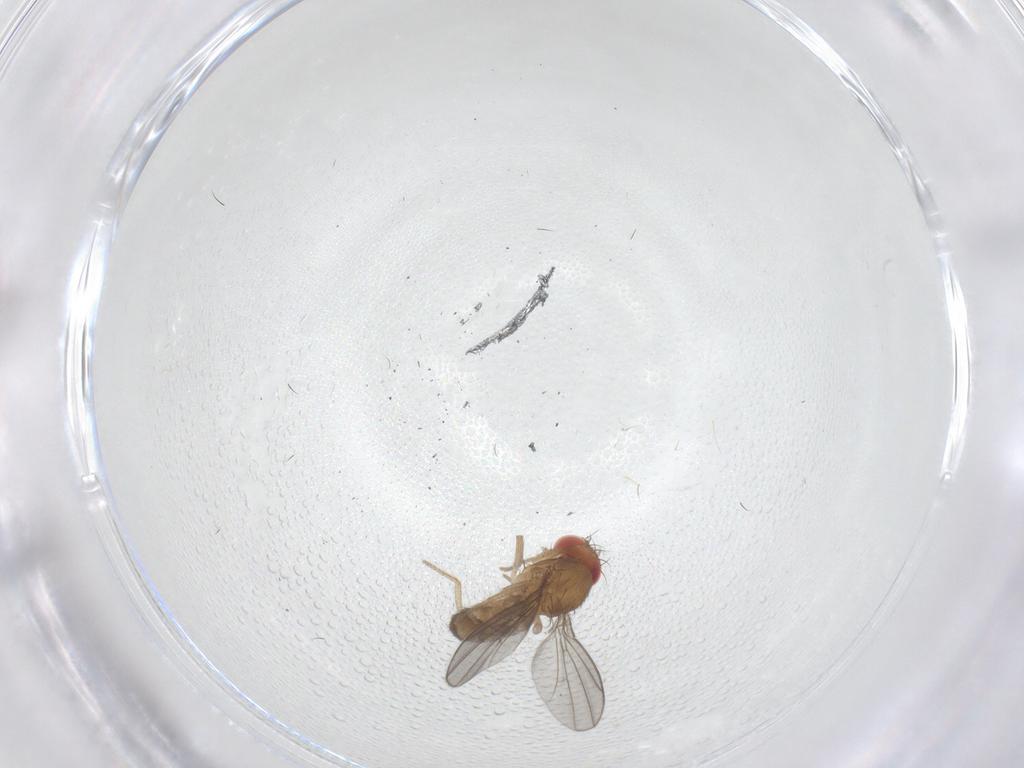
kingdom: Animalia
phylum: Arthropoda
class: Insecta
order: Diptera
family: Drosophilidae
